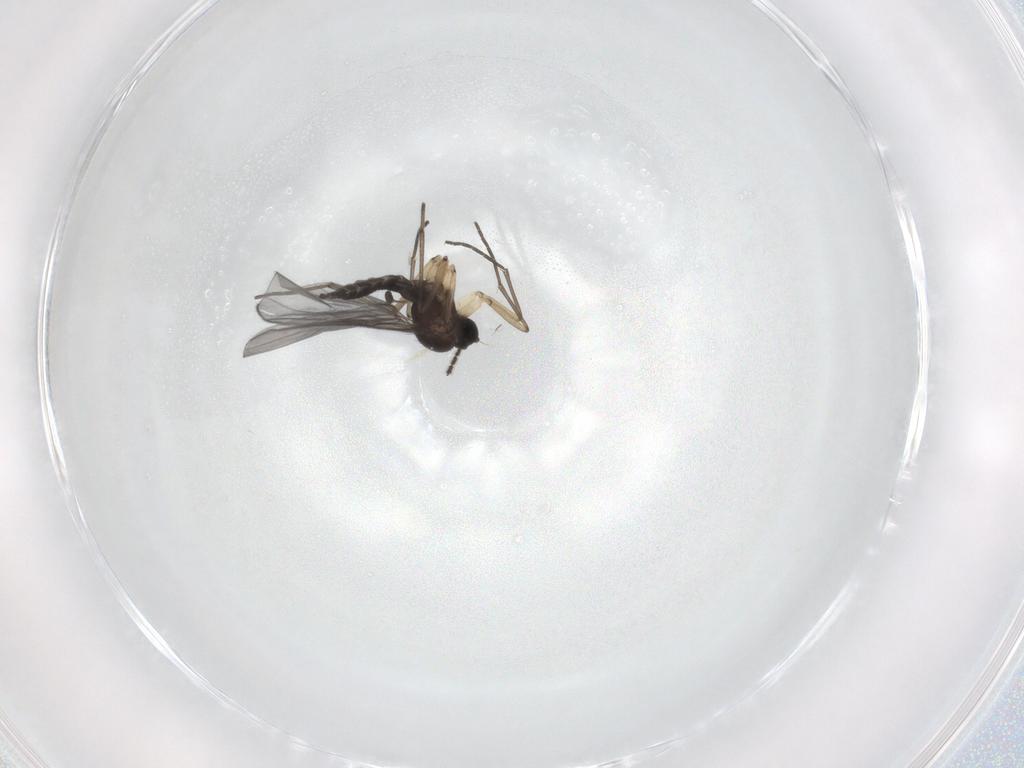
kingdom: Animalia
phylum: Arthropoda
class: Insecta
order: Diptera
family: Sciaridae
